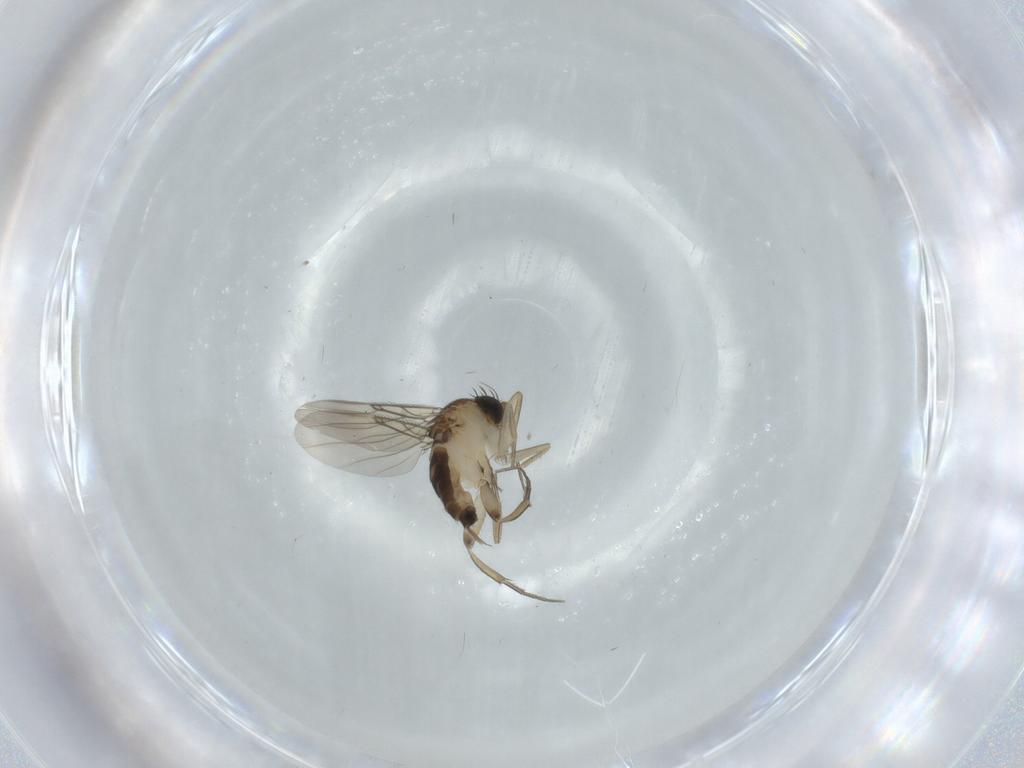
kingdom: Animalia
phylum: Arthropoda
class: Insecta
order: Diptera
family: Phoridae
